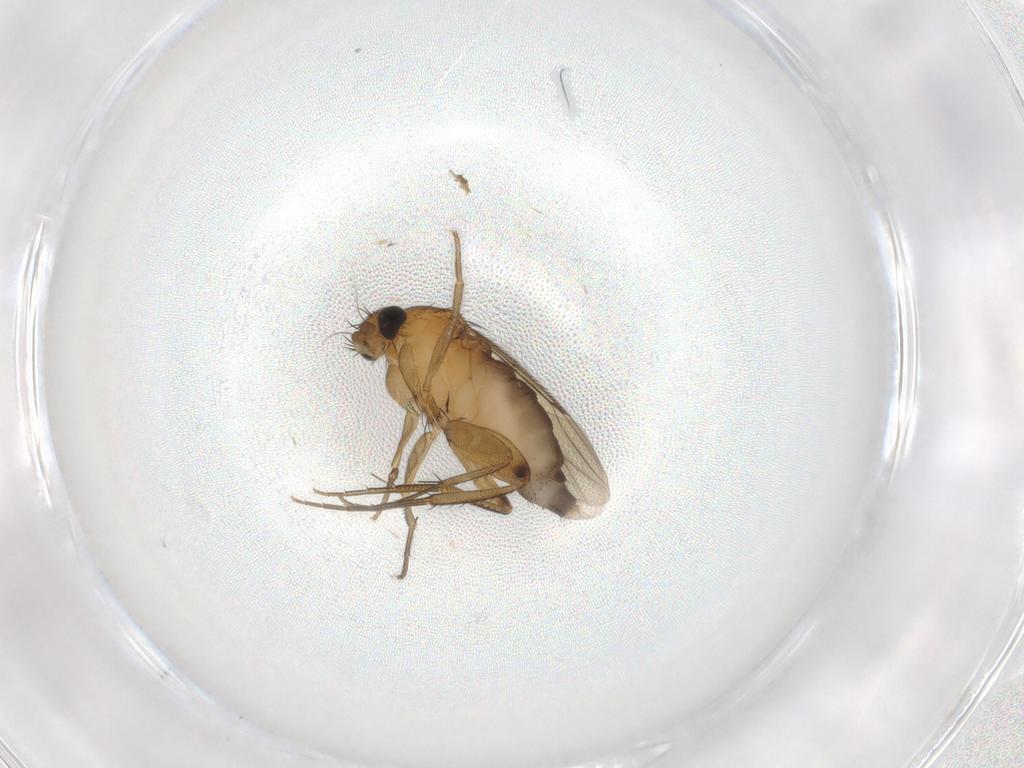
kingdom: Animalia
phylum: Arthropoda
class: Insecta
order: Diptera
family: Phoridae
